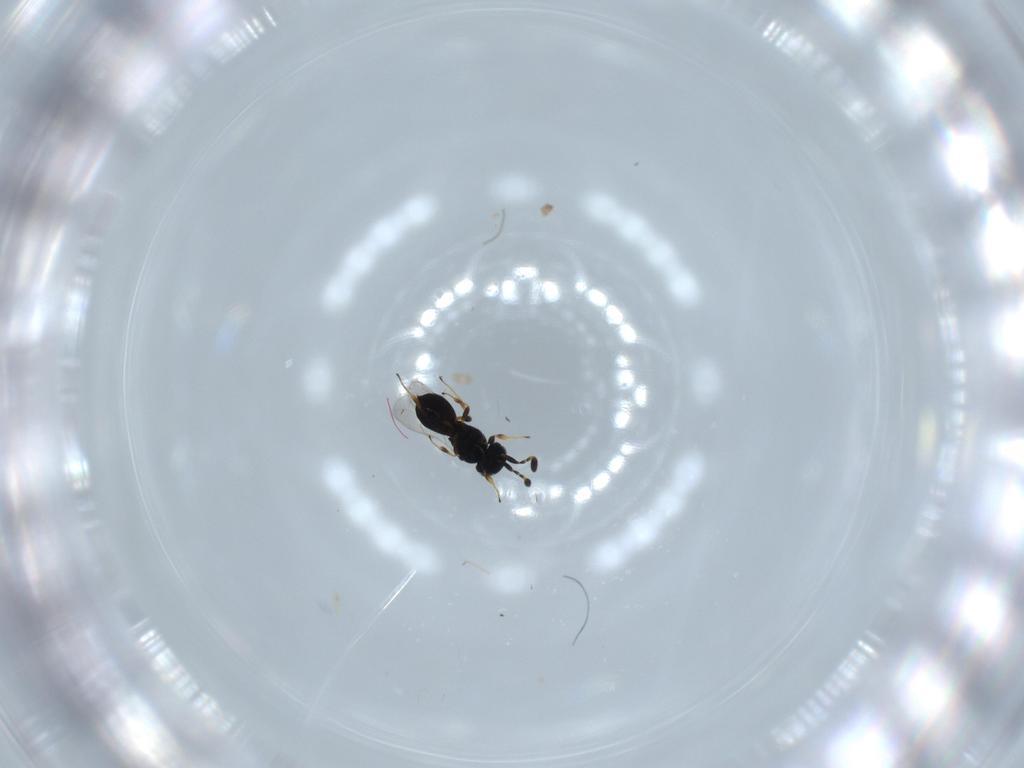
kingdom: Animalia
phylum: Arthropoda
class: Insecta
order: Hymenoptera
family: Scelionidae
